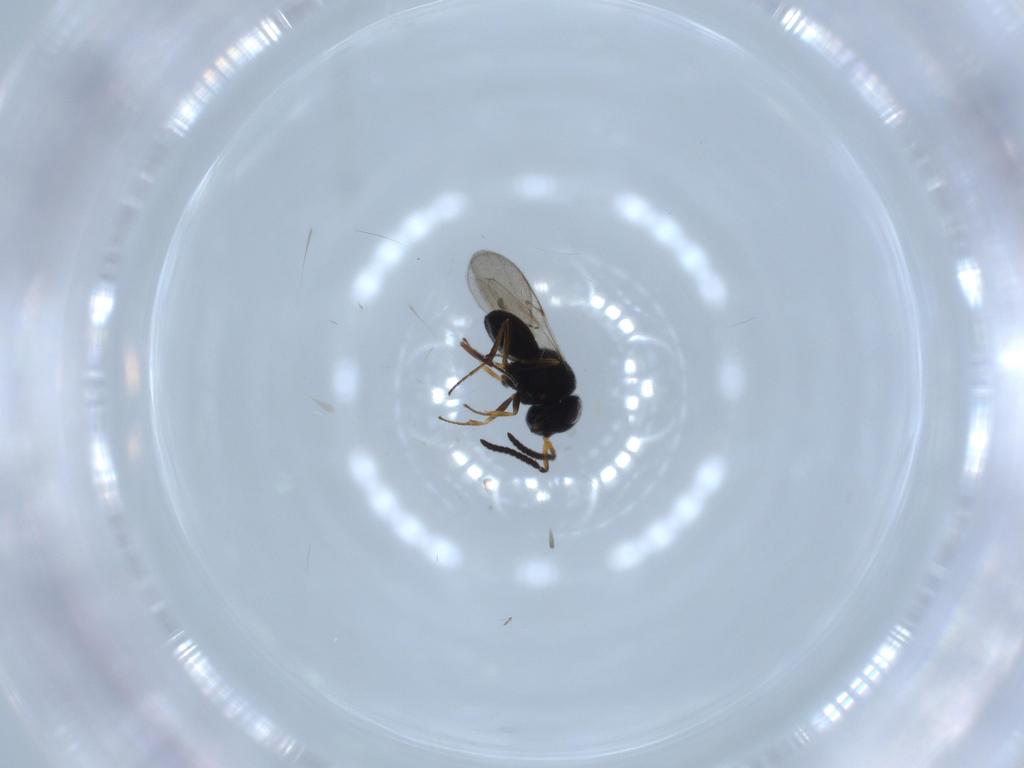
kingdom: Animalia
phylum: Arthropoda
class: Insecta
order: Hymenoptera
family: Scelionidae
